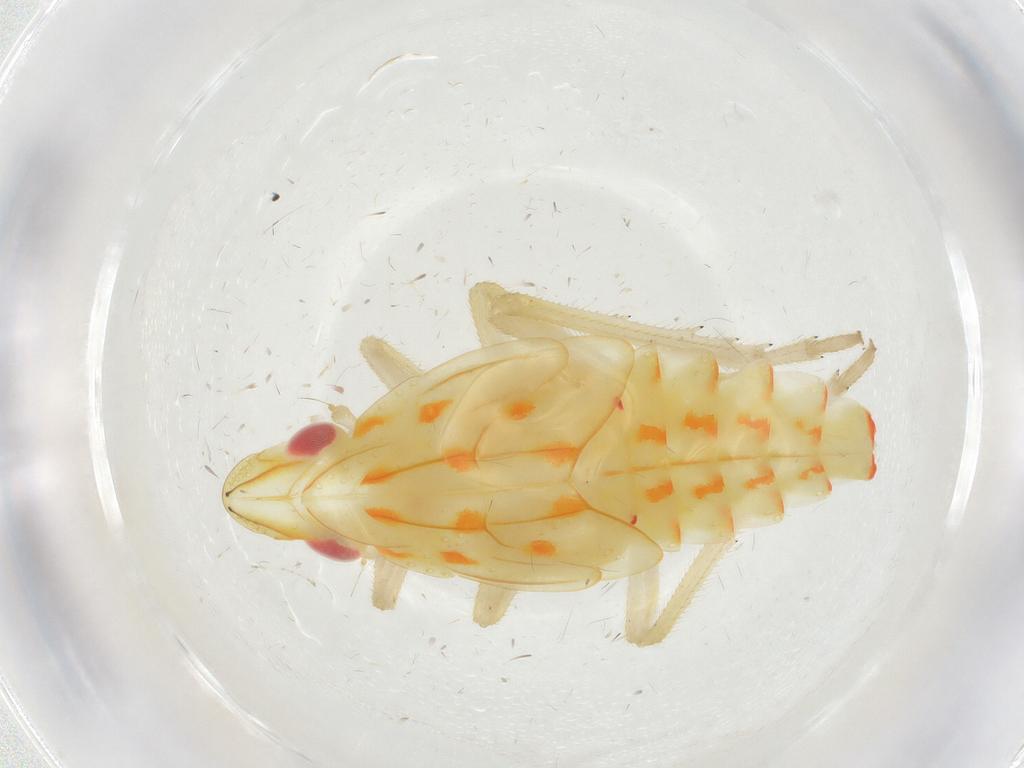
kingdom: Animalia
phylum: Arthropoda
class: Insecta
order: Hemiptera
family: Tropiduchidae
